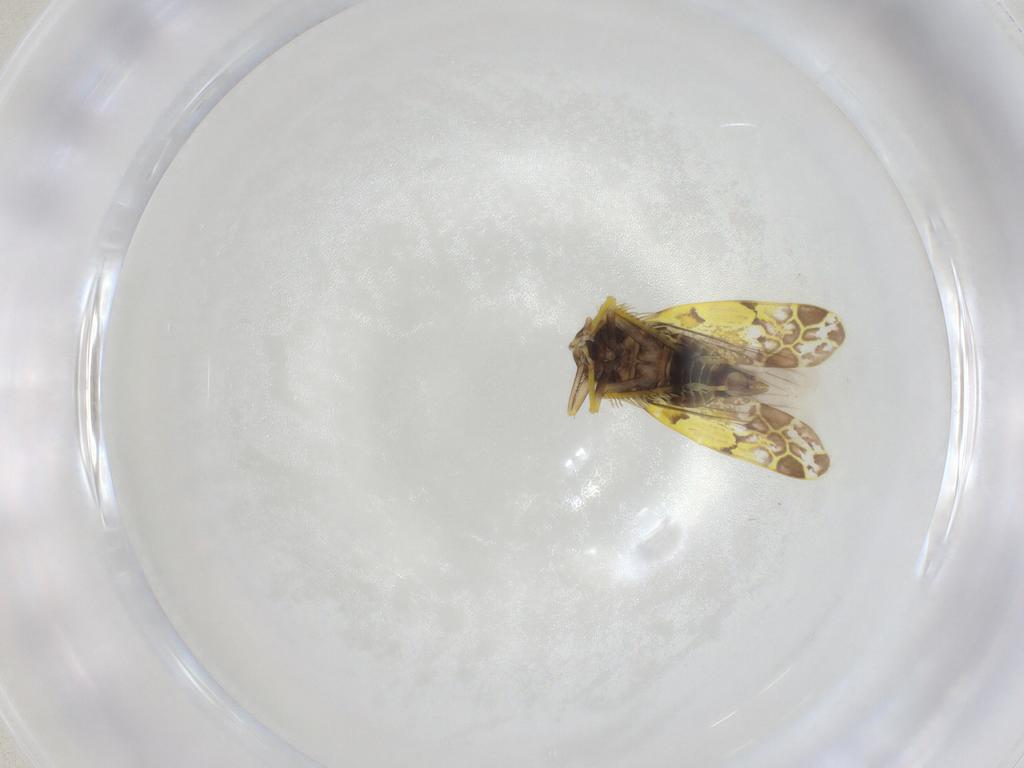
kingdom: Animalia
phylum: Arthropoda
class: Insecta
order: Hemiptera
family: Cicadellidae
